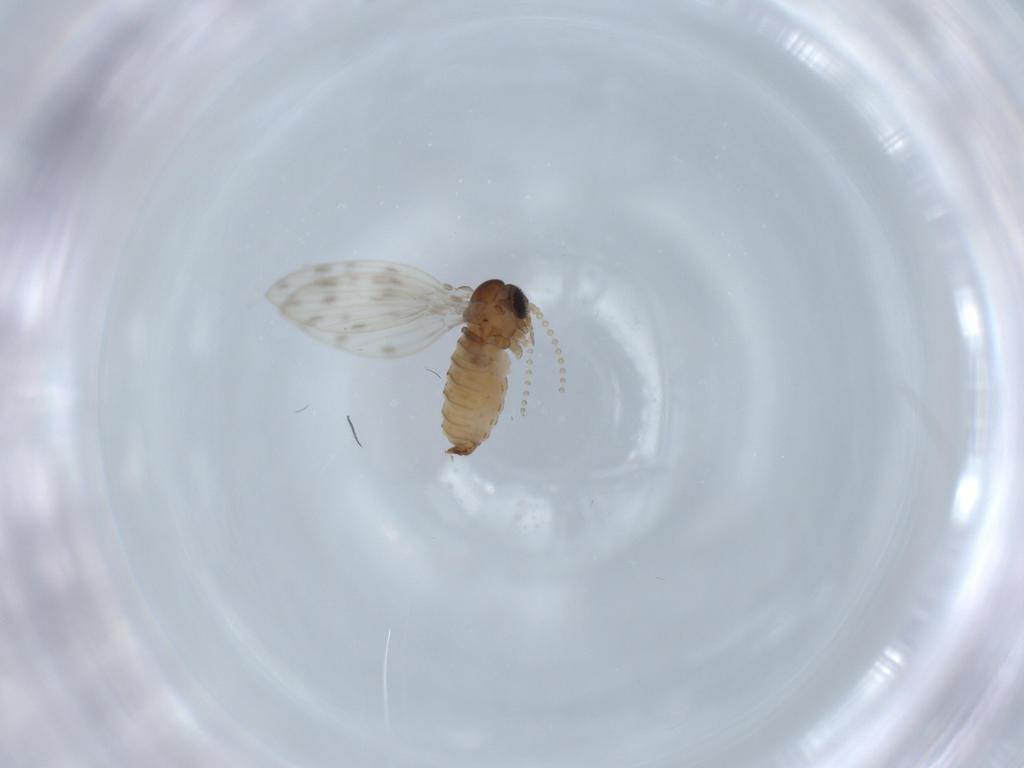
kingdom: Animalia
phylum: Arthropoda
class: Insecta
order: Diptera
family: Psychodidae
